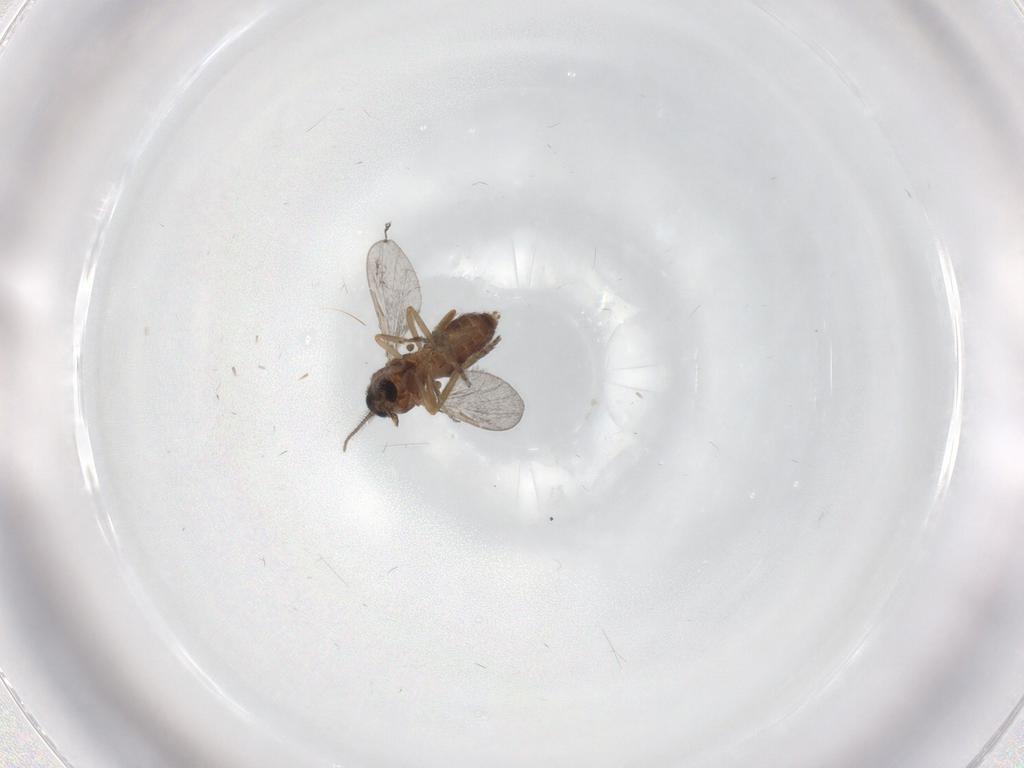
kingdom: Animalia
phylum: Arthropoda
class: Insecta
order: Diptera
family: Ceratopogonidae
